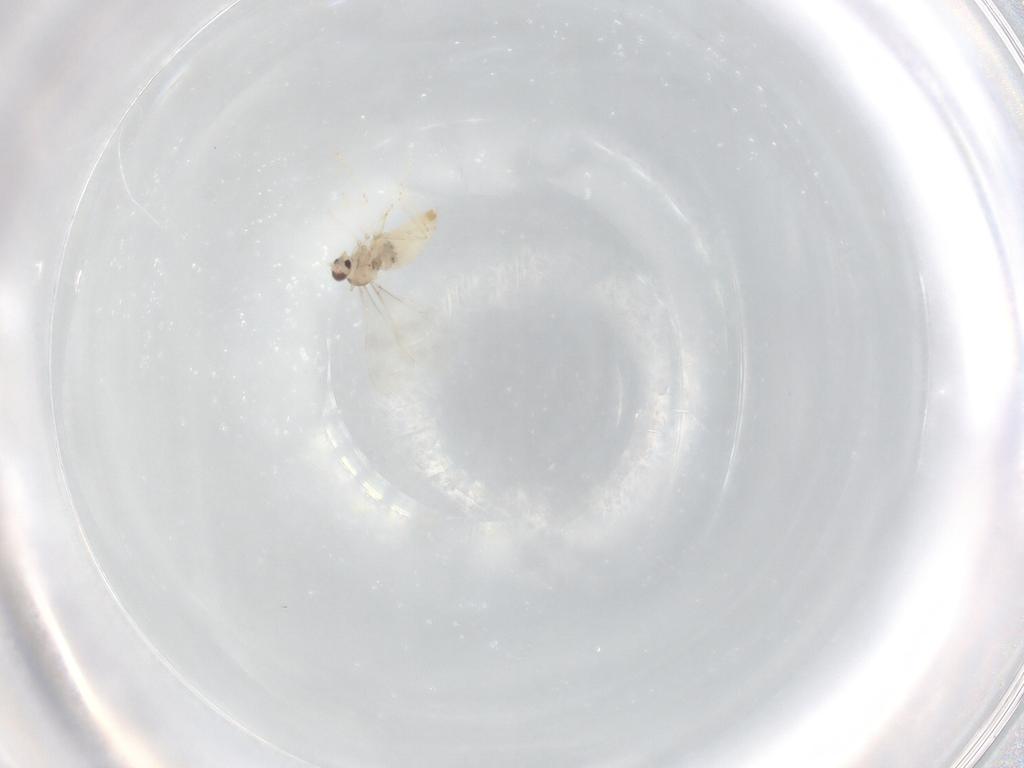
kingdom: Animalia
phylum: Arthropoda
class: Insecta
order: Diptera
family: Cecidomyiidae
